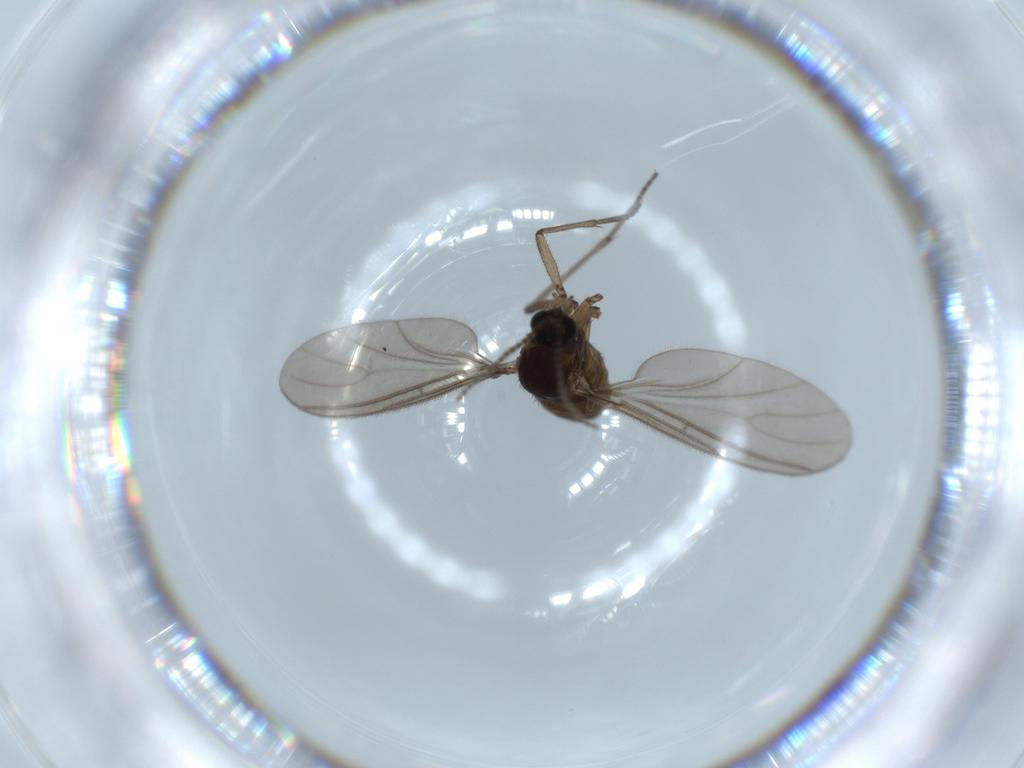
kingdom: Animalia
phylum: Arthropoda
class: Insecta
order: Diptera
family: Sciaridae
